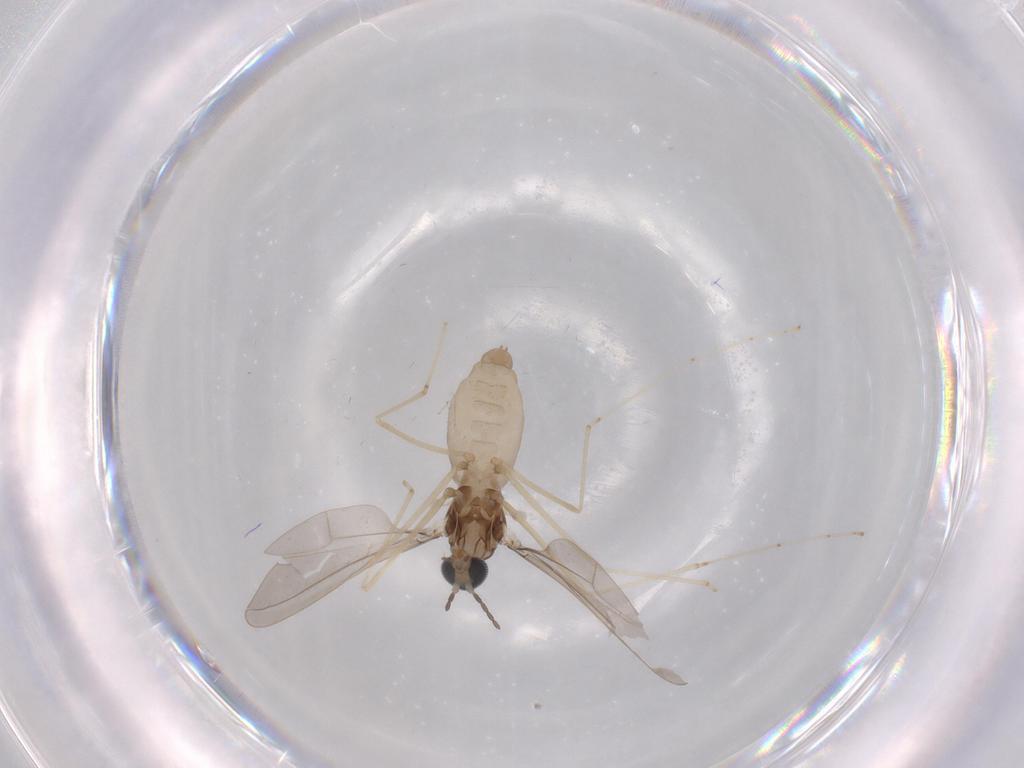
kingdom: Animalia
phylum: Arthropoda
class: Insecta
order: Diptera
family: Cecidomyiidae
